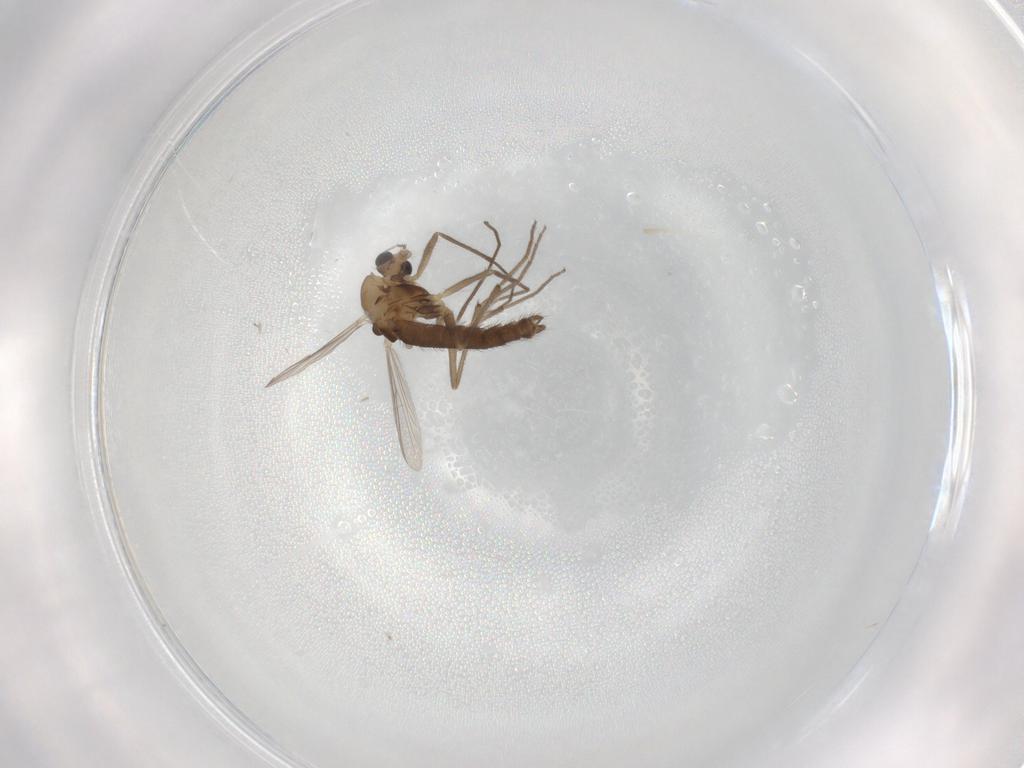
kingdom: Animalia
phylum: Arthropoda
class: Insecta
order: Diptera
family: Chironomidae
